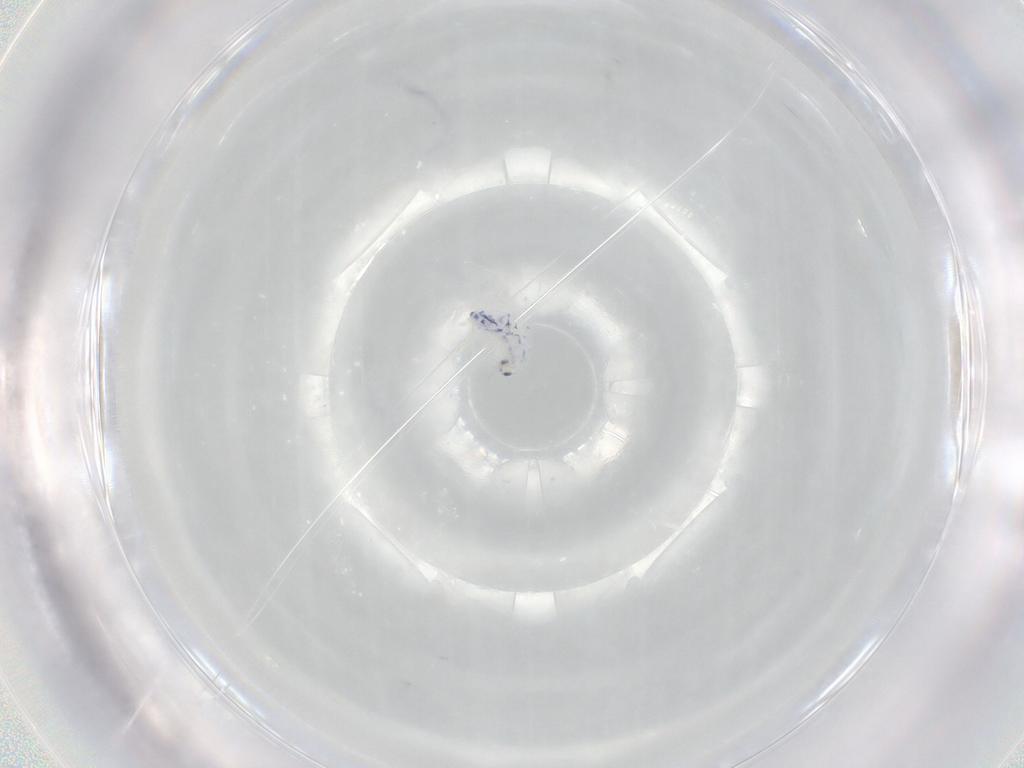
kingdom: Animalia
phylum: Arthropoda
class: Collembola
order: Entomobryomorpha
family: Entomobryidae
